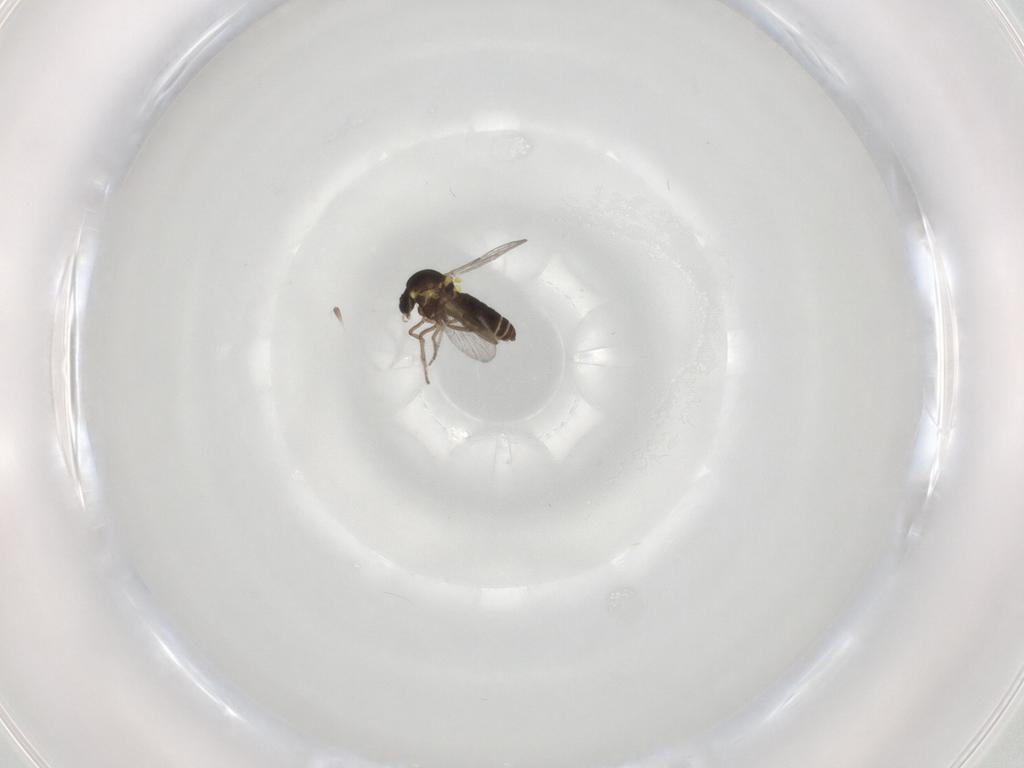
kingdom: Animalia
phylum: Arthropoda
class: Insecta
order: Diptera
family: Ceratopogonidae
